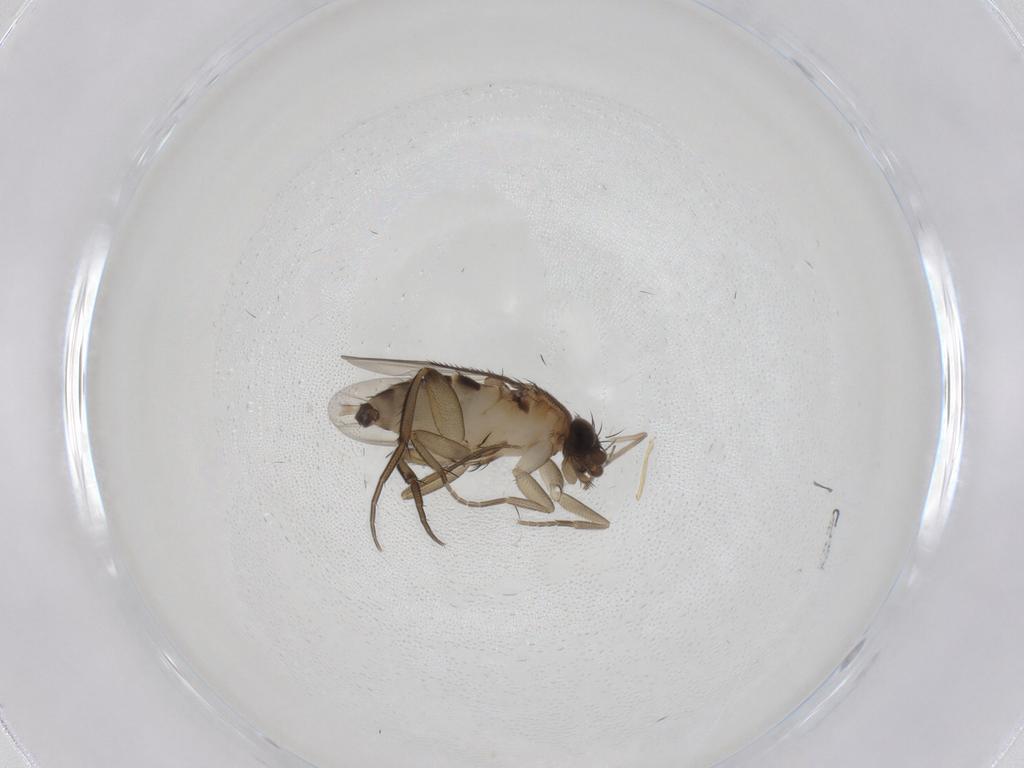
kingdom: Animalia
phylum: Arthropoda
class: Insecta
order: Diptera
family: Phoridae
